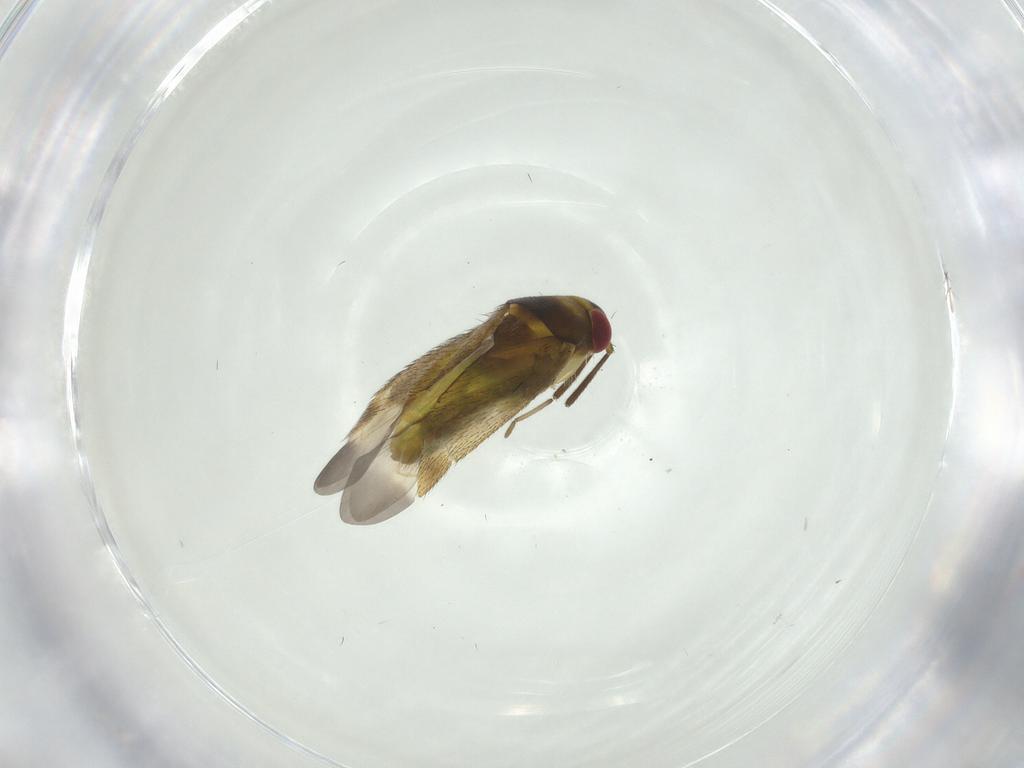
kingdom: Animalia
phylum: Arthropoda
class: Insecta
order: Hemiptera
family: Miridae
